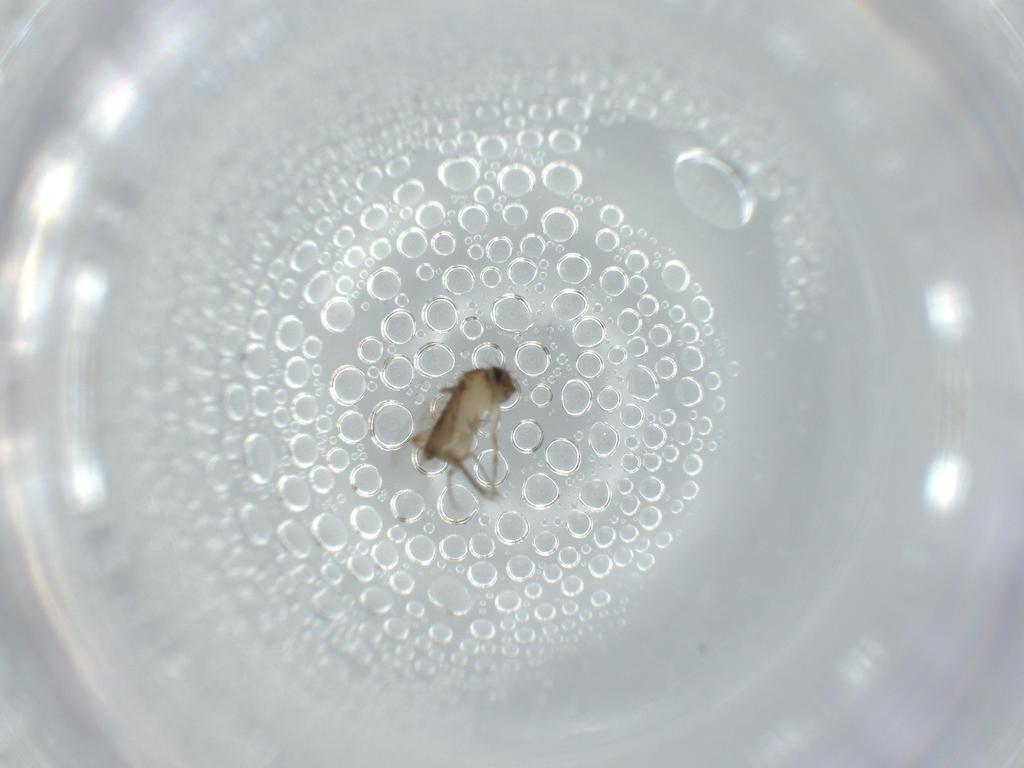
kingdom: Animalia
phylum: Arthropoda
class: Insecta
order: Diptera
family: Phoridae
